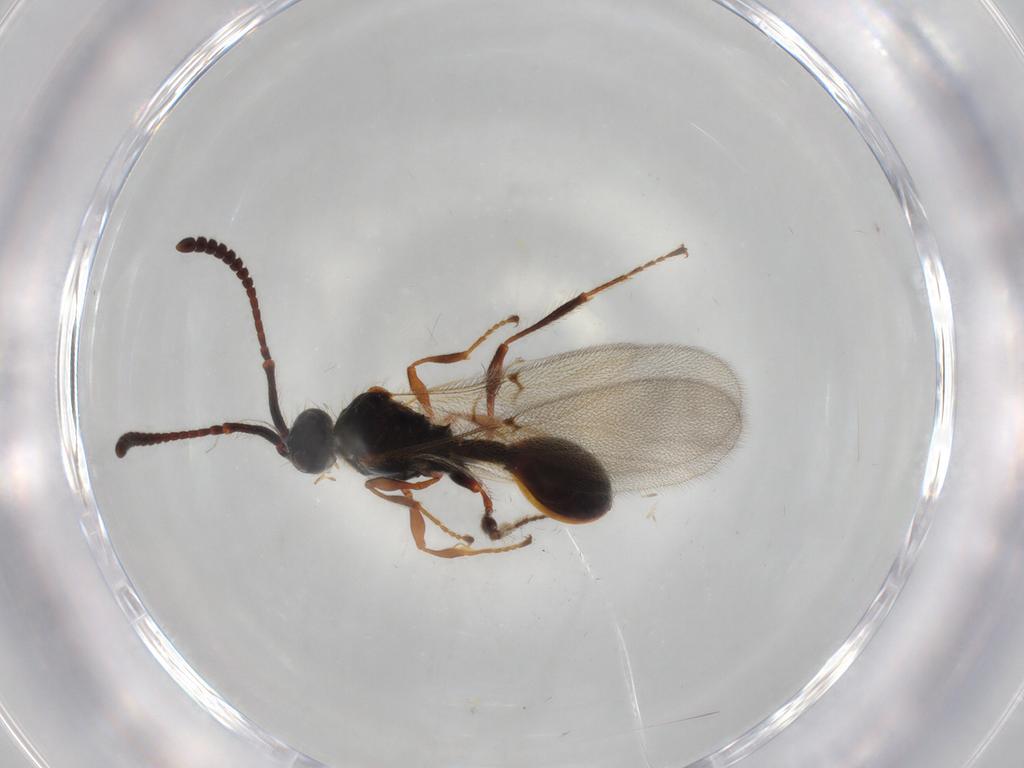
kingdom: Animalia
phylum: Arthropoda
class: Insecta
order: Hymenoptera
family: Diapriidae
